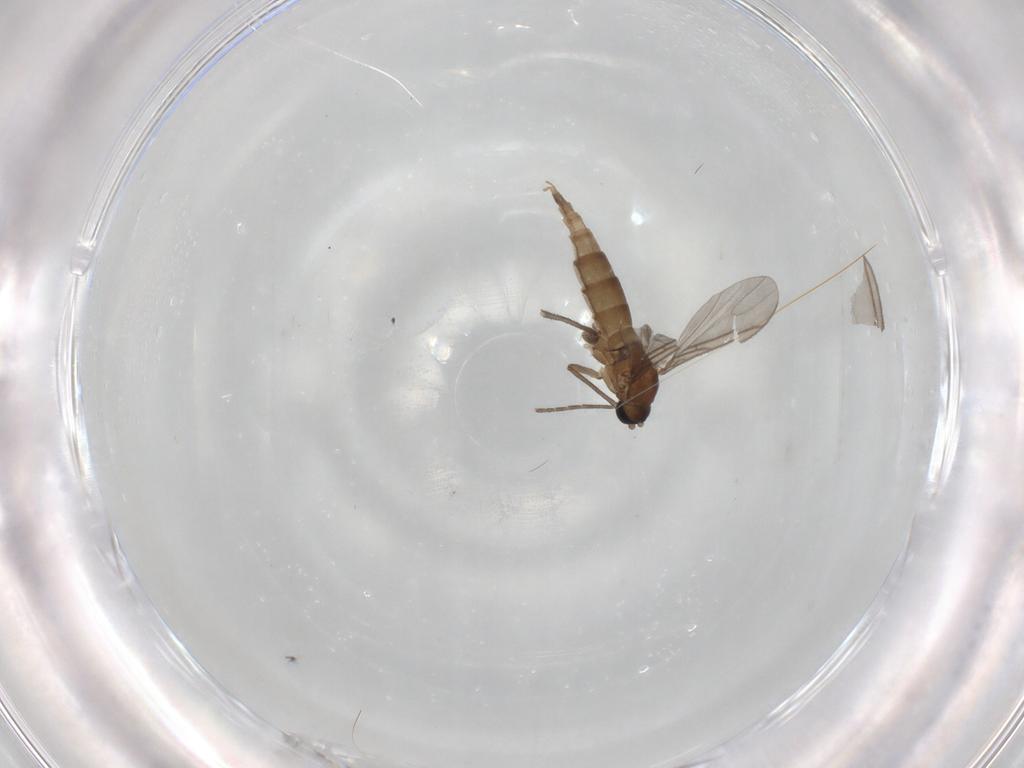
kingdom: Animalia
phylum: Arthropoda
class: Insecta
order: Diptera
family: Sciaridae
